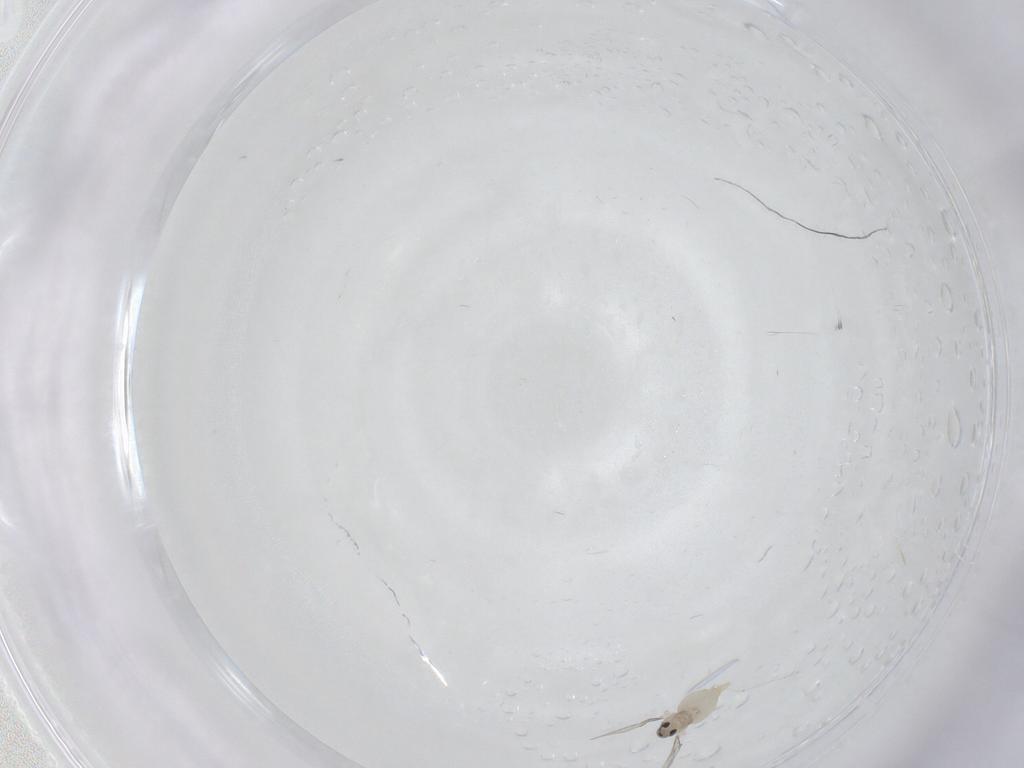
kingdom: Animalia
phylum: Arthropoda
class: Insecta
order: Diptera
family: Cecidomyiidae
